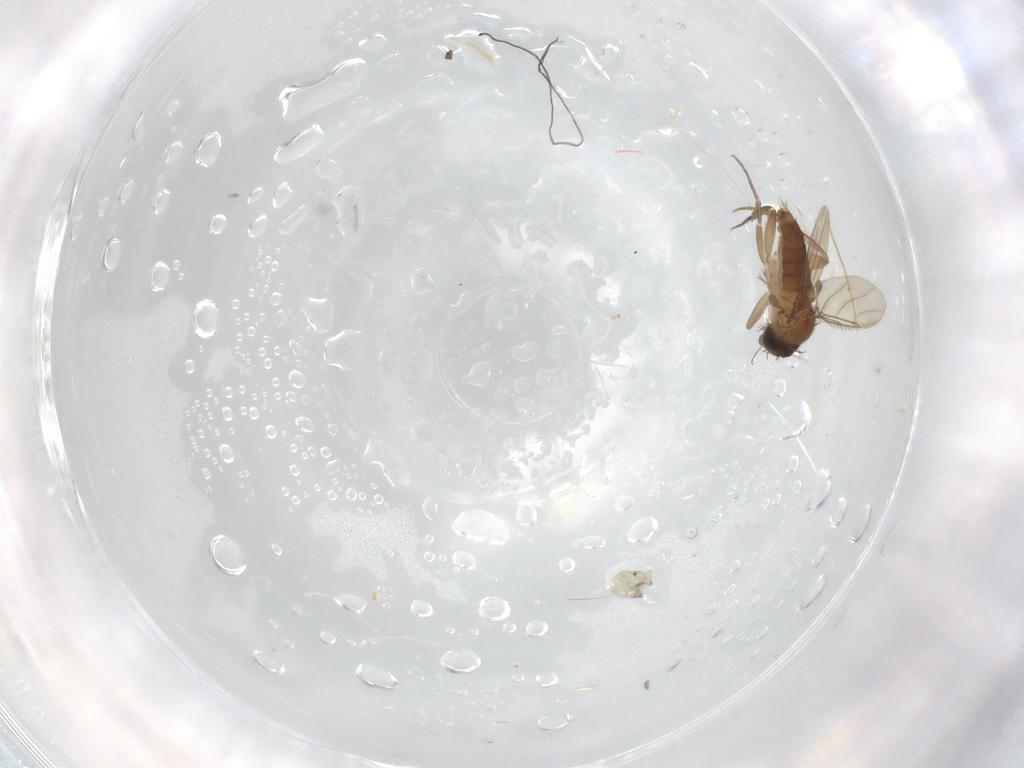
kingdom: Animalia
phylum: Arthropoda
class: Insecta
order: Diptera
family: Phoridae
